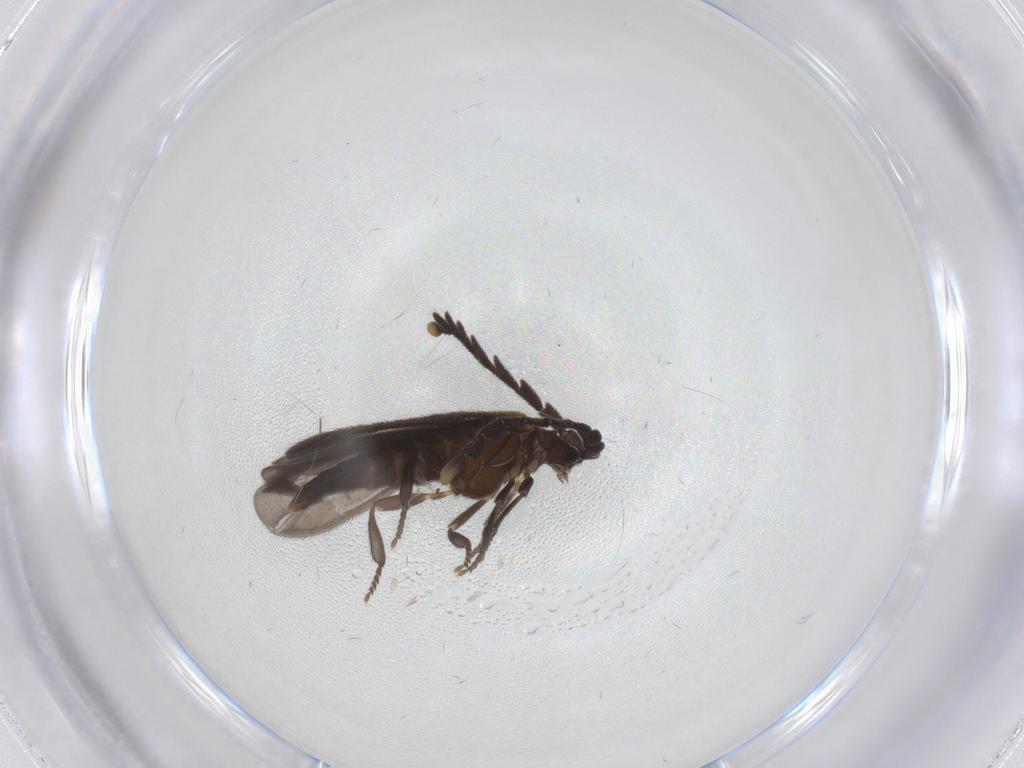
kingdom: Animalia
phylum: Arthropoda
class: Insecta
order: Coleoptera
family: Lycidae
